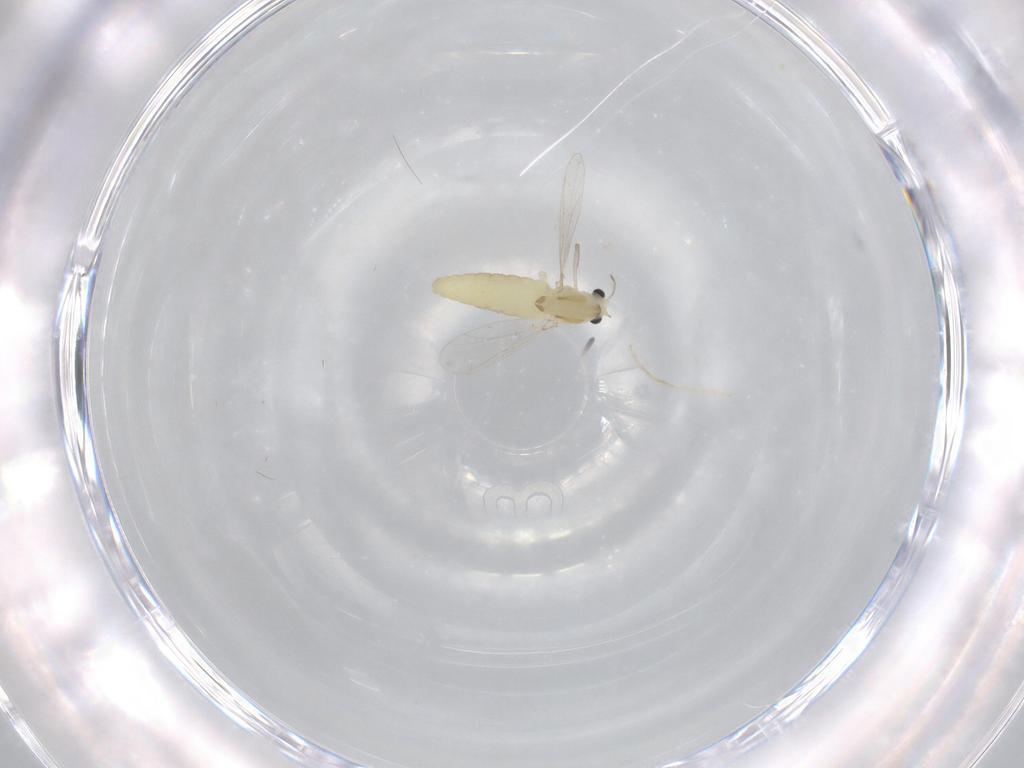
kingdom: Animalia
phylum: Arthropoda
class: Insecta
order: Diptera
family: Chironomidae
